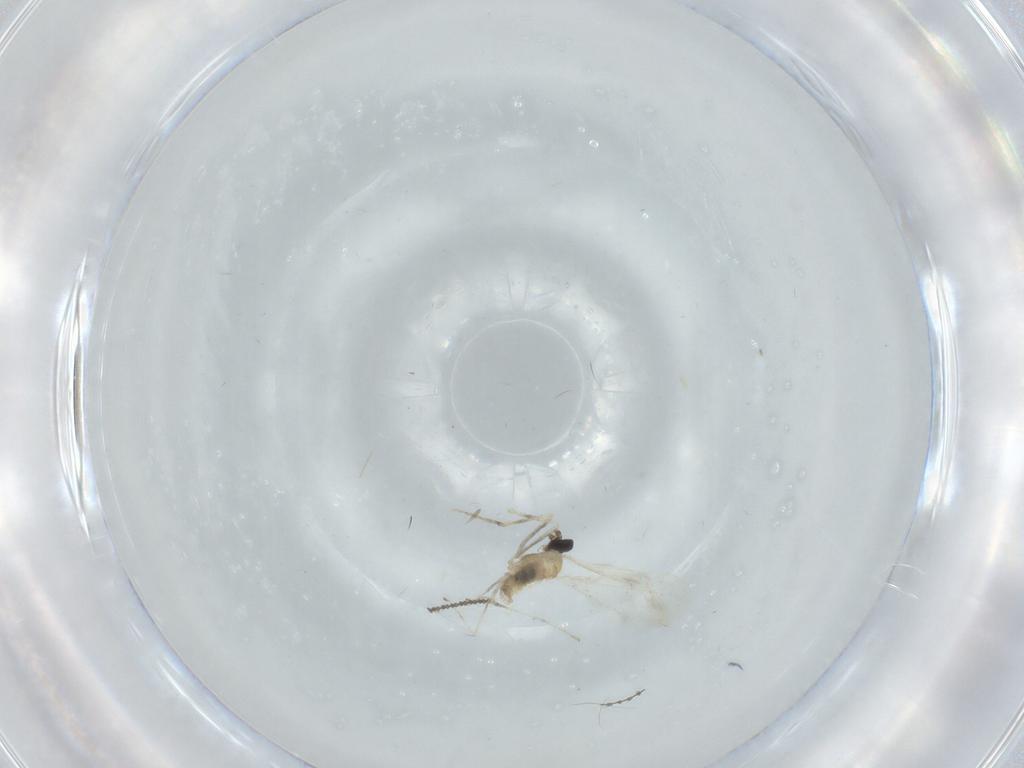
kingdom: Animalia
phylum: Arthropoda
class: Insecta
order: Diptera
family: Cecidomyiidae
